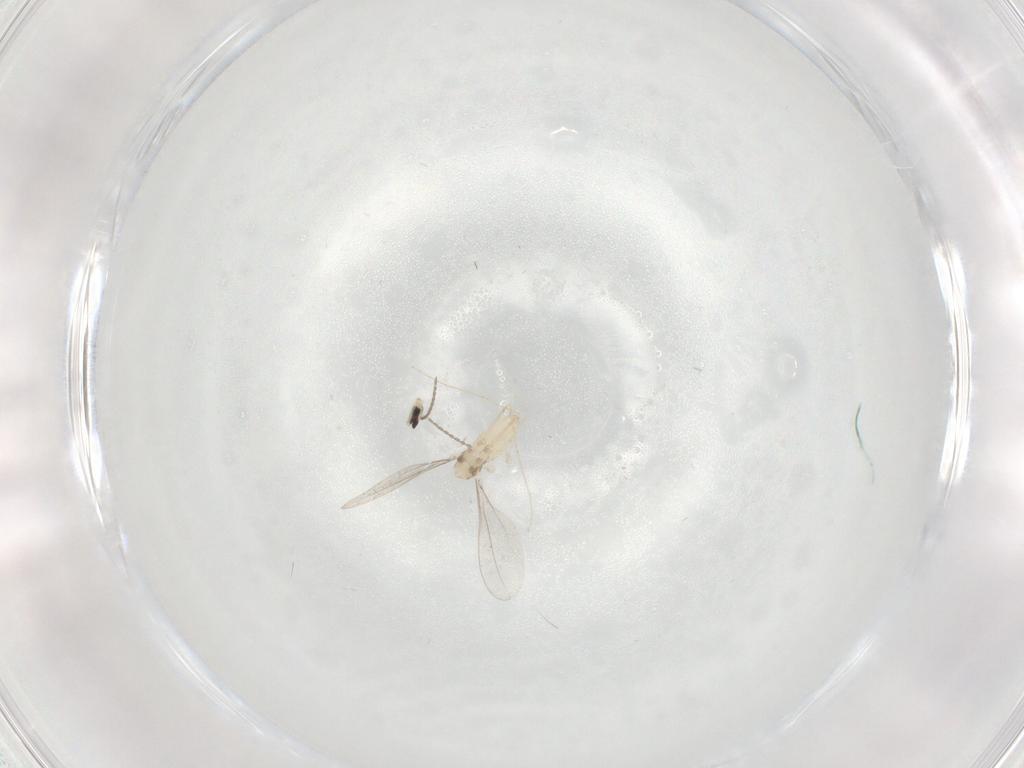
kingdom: Animalia
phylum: Arthropoda
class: Insecta
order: Diptera
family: Cecidomyiidae
